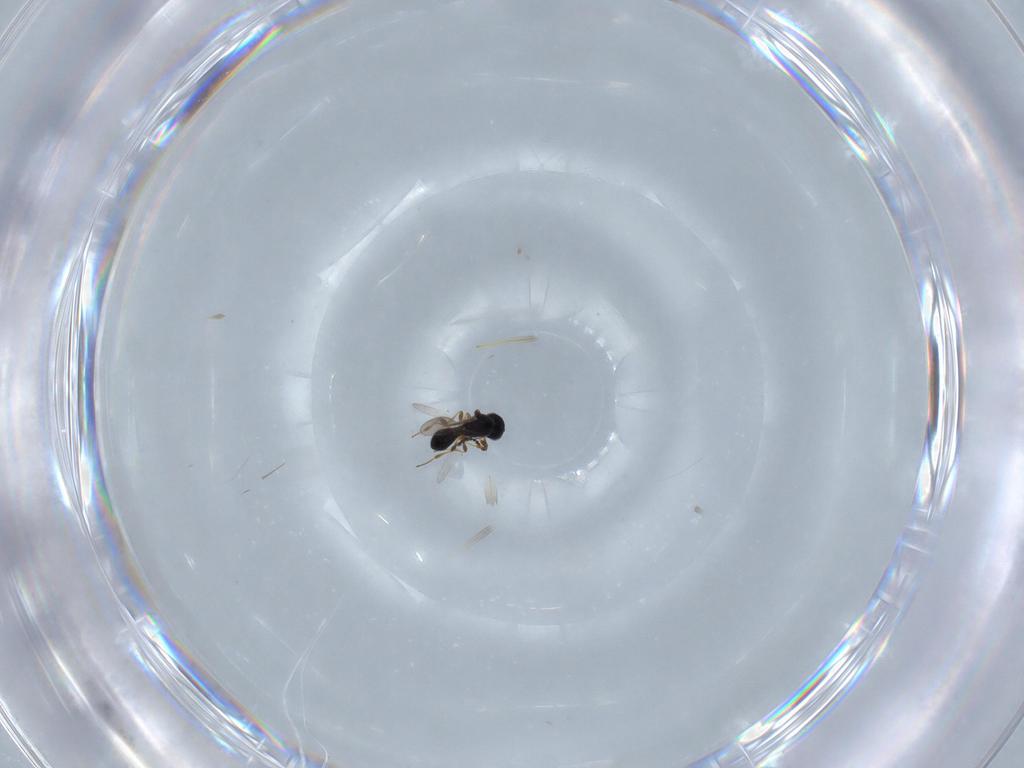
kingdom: Animalia
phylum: Arthropoda
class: Insecta
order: Hymenoptera
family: Platygastridae
